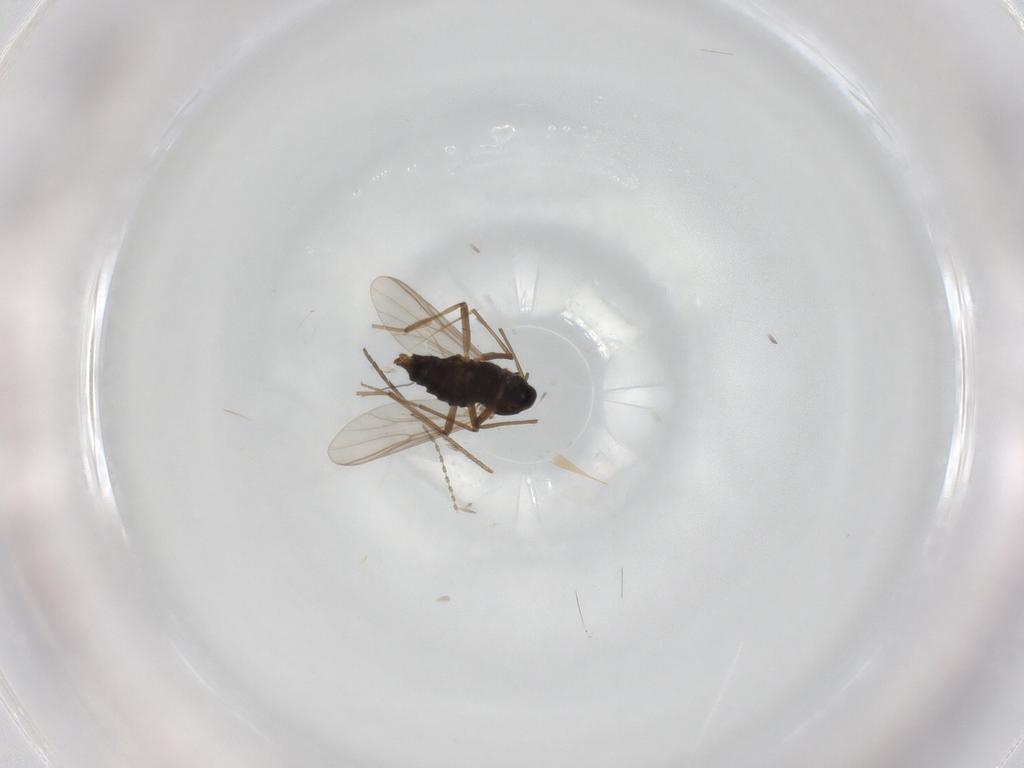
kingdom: Animalia
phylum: Arthropoda
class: Insecta
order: Diptera
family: Chironomidae
